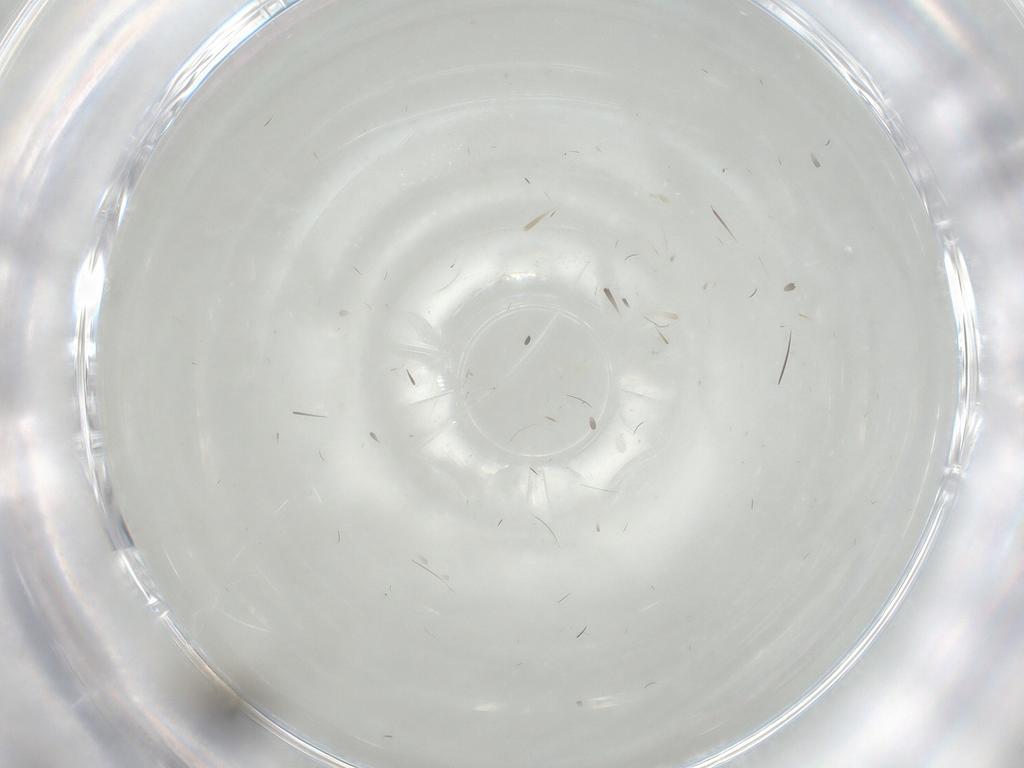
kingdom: Animalia
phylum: Arthropoda
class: Insecta
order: Hymenoptera
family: Scelionidae
